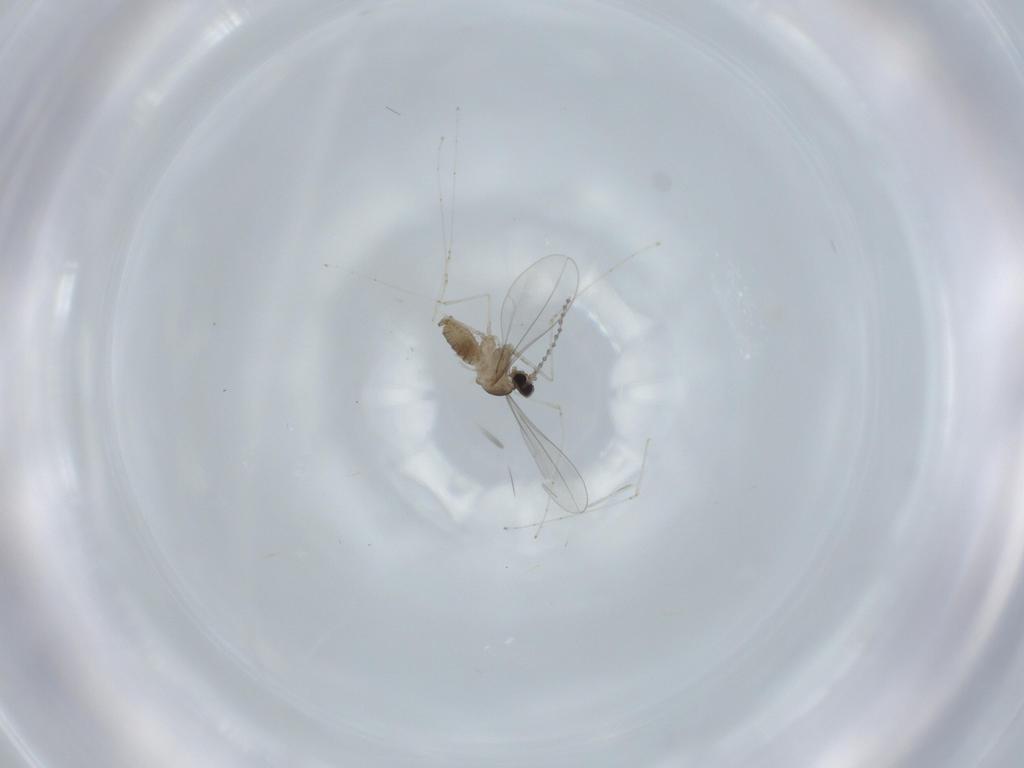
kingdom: Animalia
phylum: Arthropoda
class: Insecta
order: Diptera
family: Cecidomyiidae
